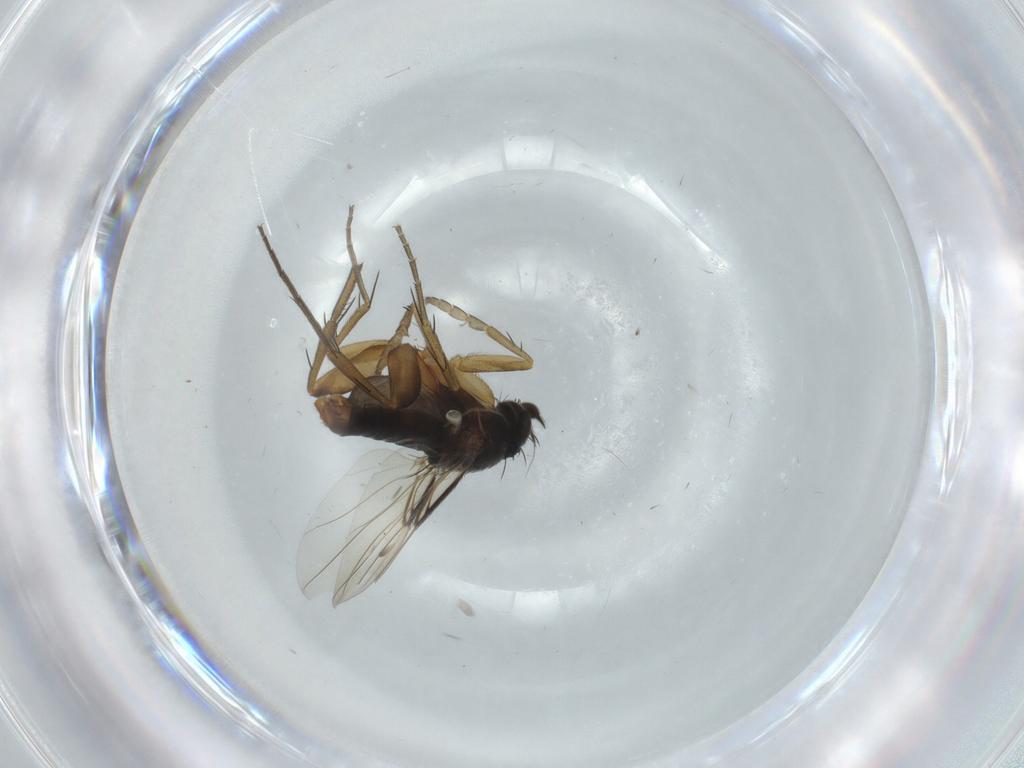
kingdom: Animalia
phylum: Arthropoda
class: Insecta
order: Diptera
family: Phoridae
